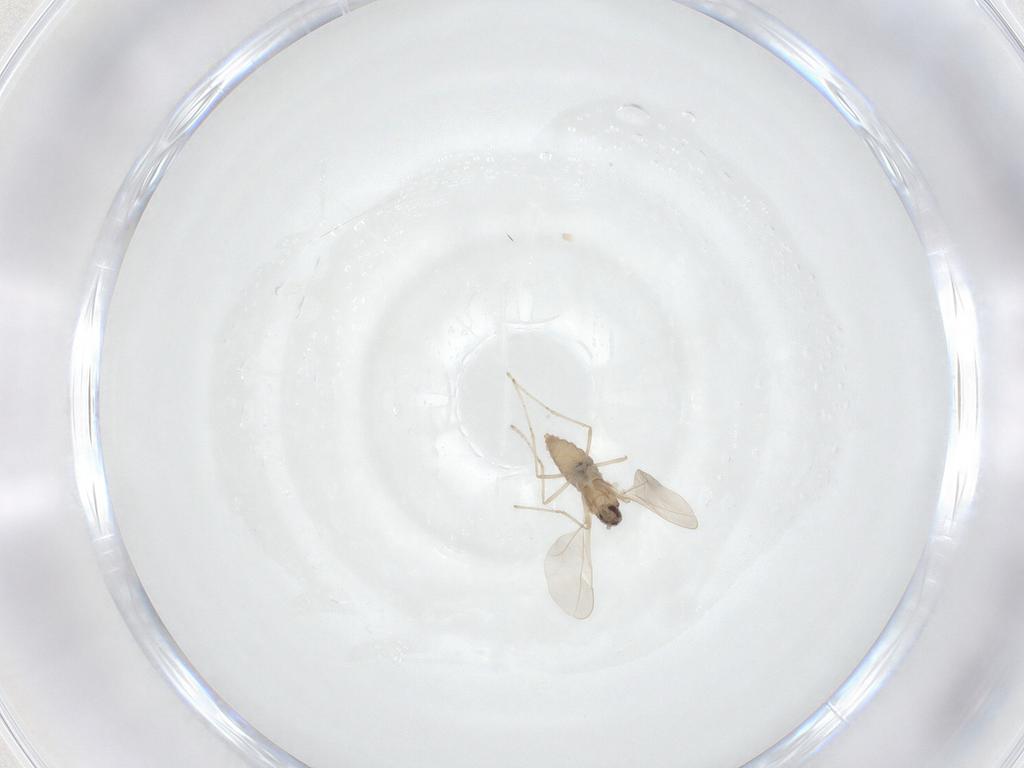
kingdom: Animalia
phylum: Arthropoda
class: Insecta
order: Diptera
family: Cecidomyiidae
